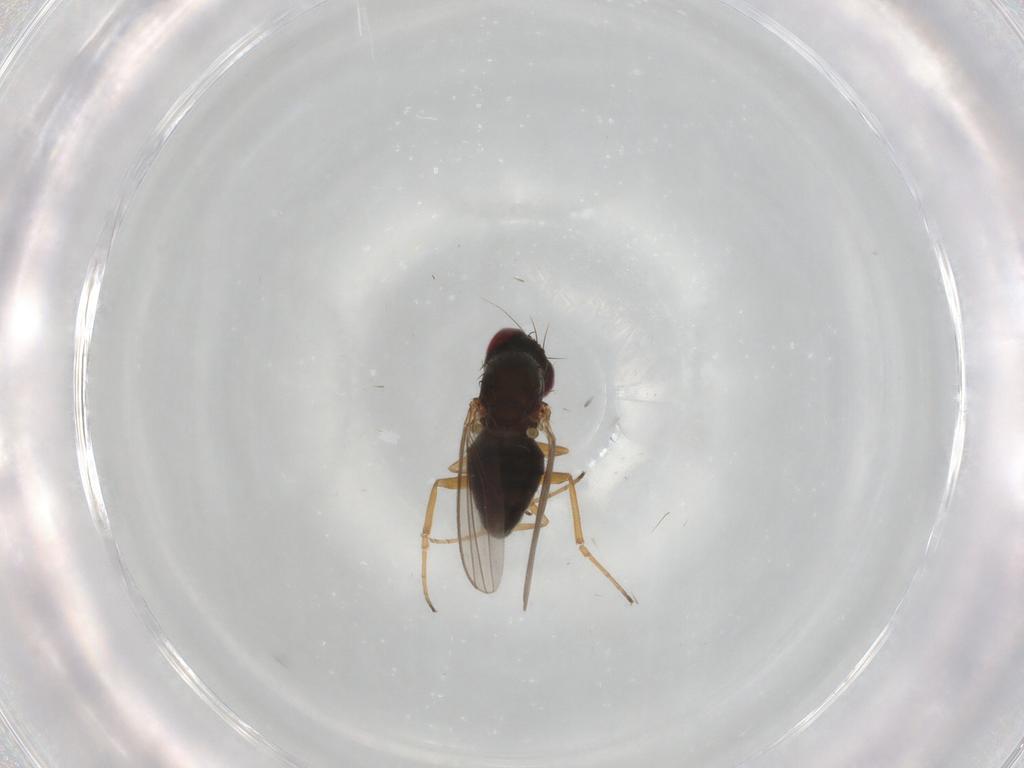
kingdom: Animalia
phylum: Arthropoda
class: Insecta
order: Diptera
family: Dolichopodidae
